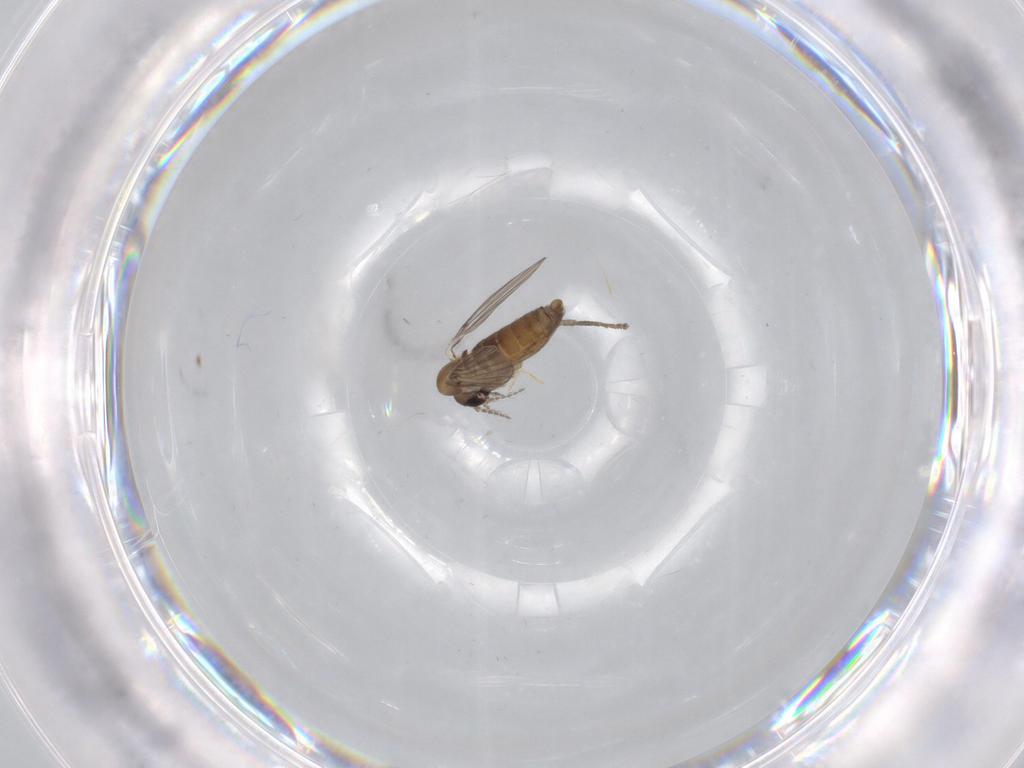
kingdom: Animalia
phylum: Arthropoda
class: Insecta
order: Diptera
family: Psychodidae
